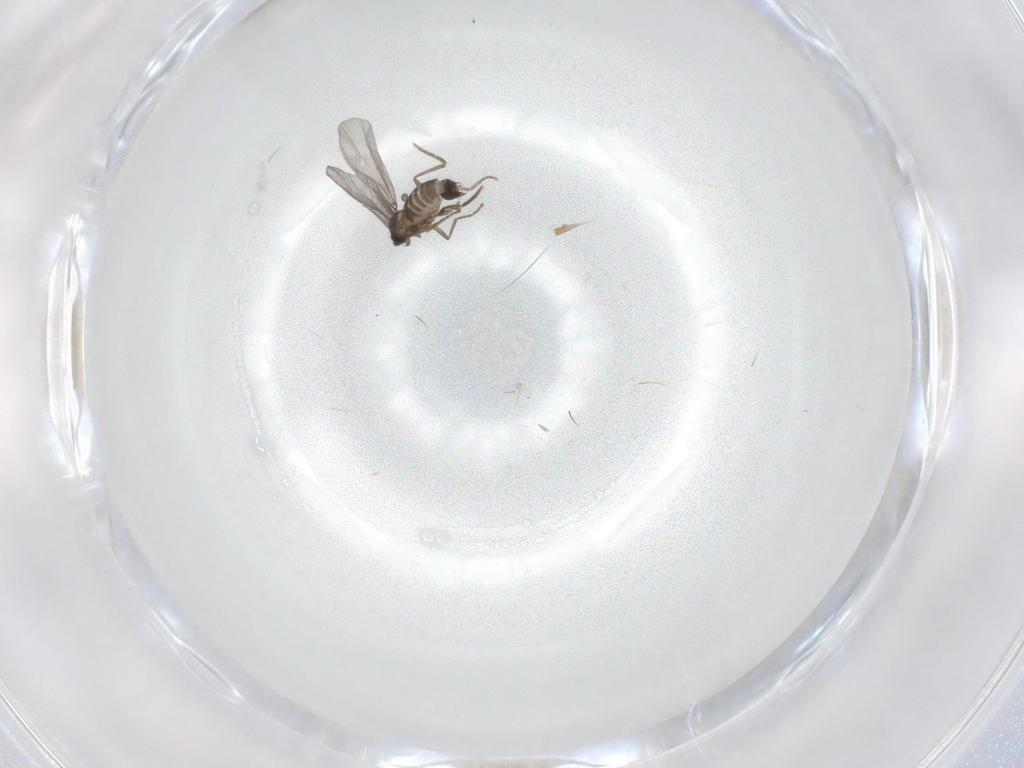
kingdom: Animalia
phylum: Arthropoda
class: Insecta
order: Diptera
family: Phoridae
